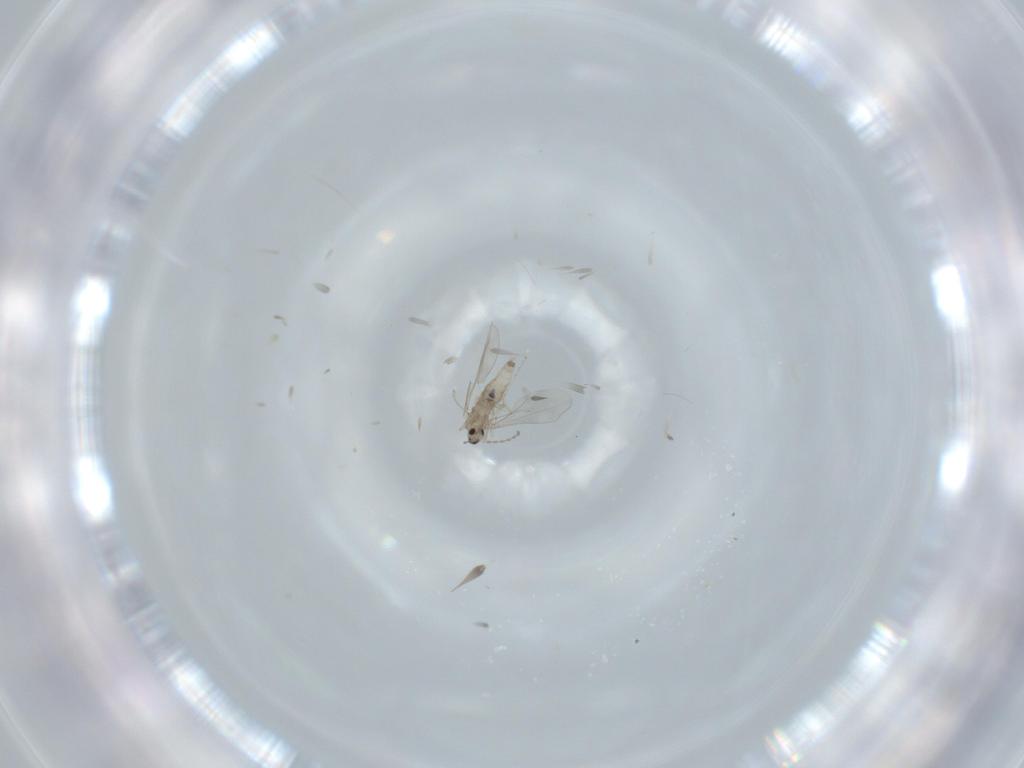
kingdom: Animalia
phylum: Arthropoda
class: Insecta
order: Diptera
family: Cecidomyiidae
